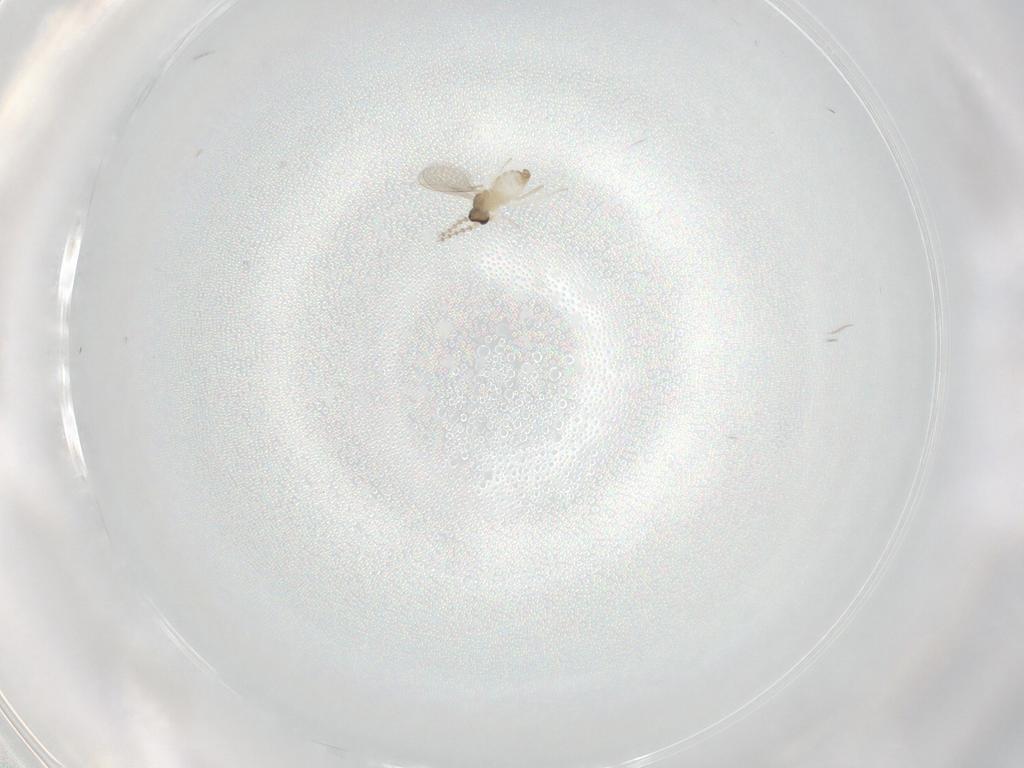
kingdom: Animalia
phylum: Arthropoda
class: Insecta
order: Diptera
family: Cecidomyiidae
